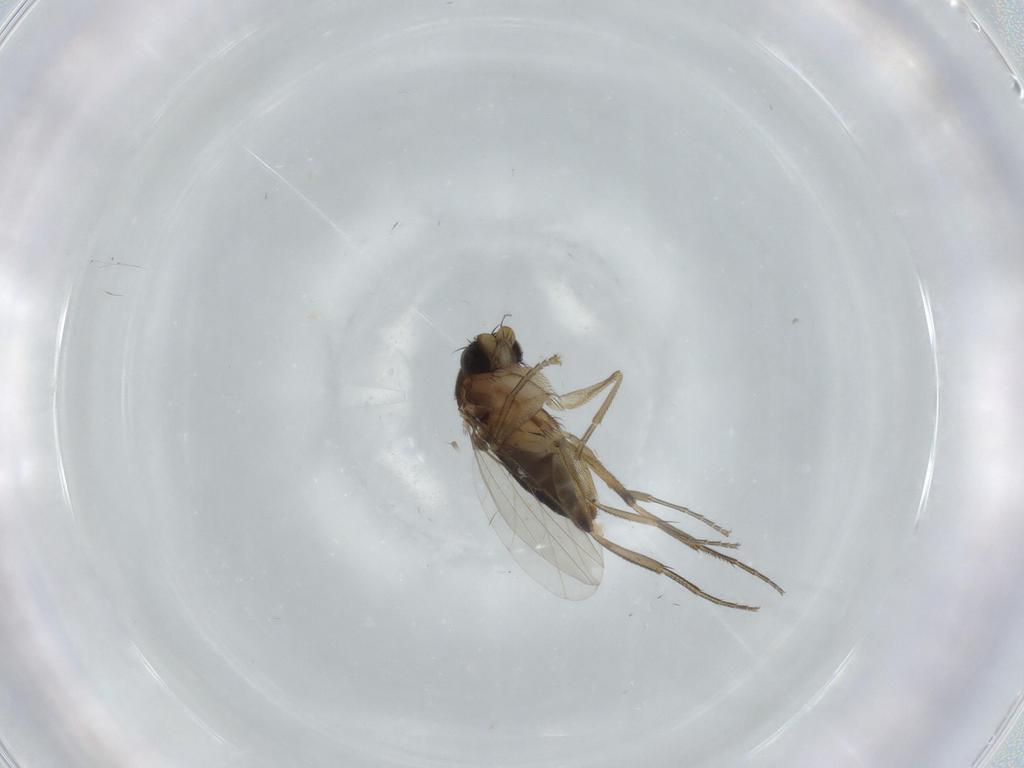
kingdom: Animalia
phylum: Arthropoda
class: Insecta
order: Diptera
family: Phoridae
